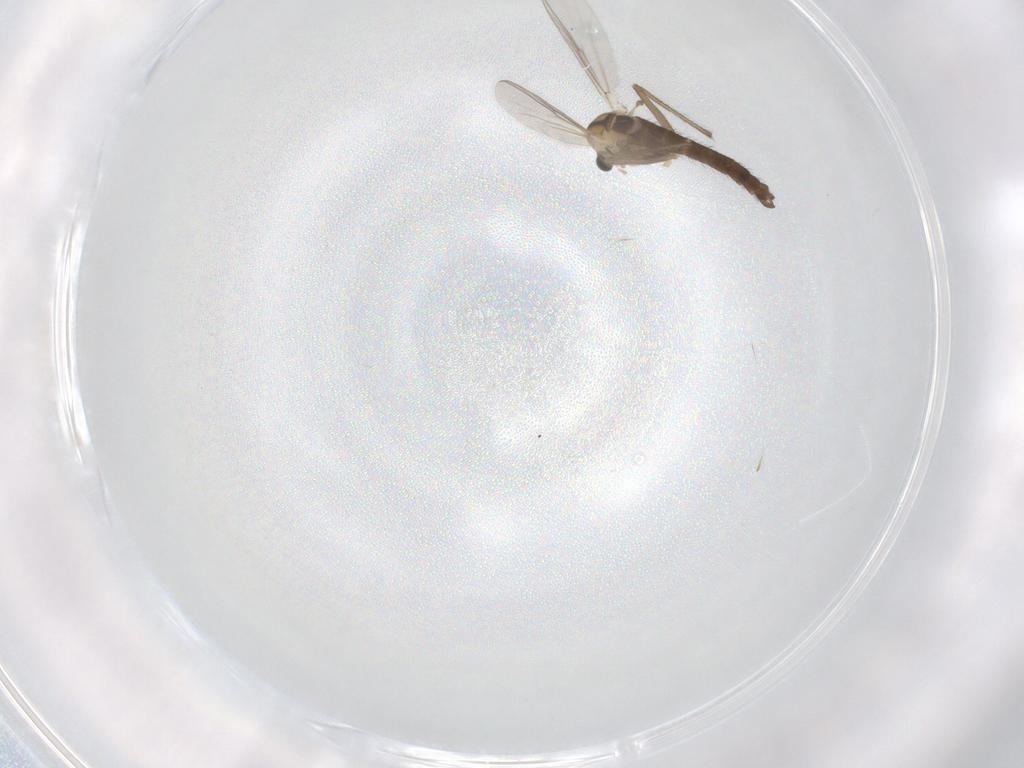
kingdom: Animalia
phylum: Arthropoda
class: Insecta
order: Diptera
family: Chironomidae
